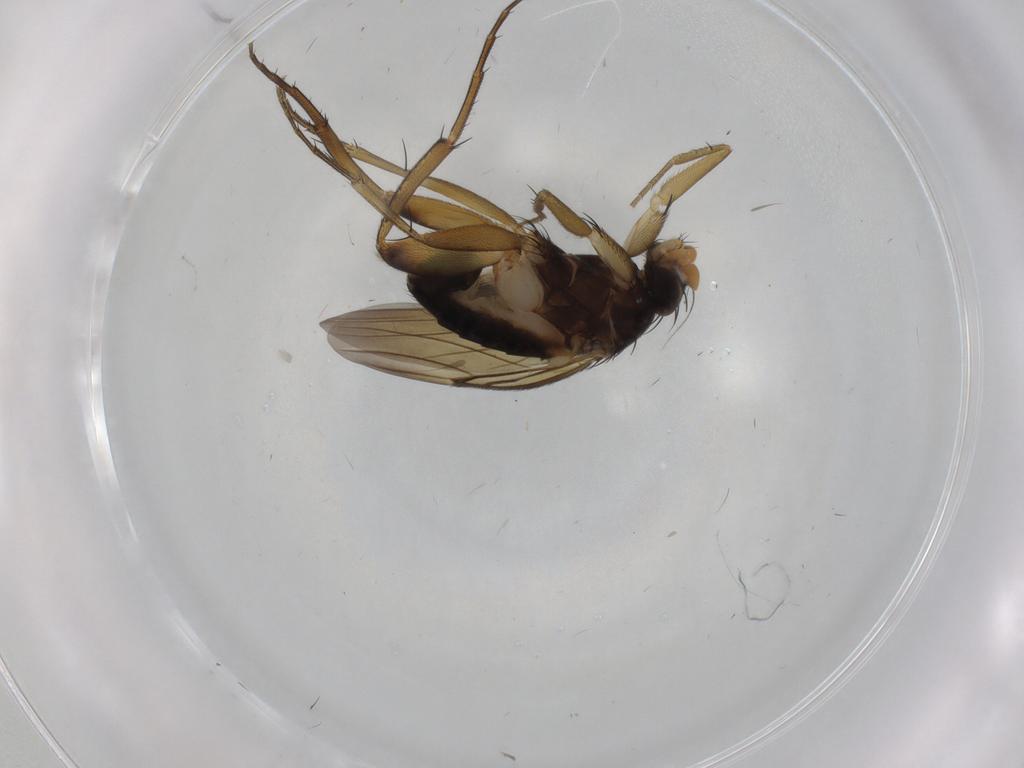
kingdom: Animalia
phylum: Arthropoda
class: Insecta
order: Diptera
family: Phoridae
